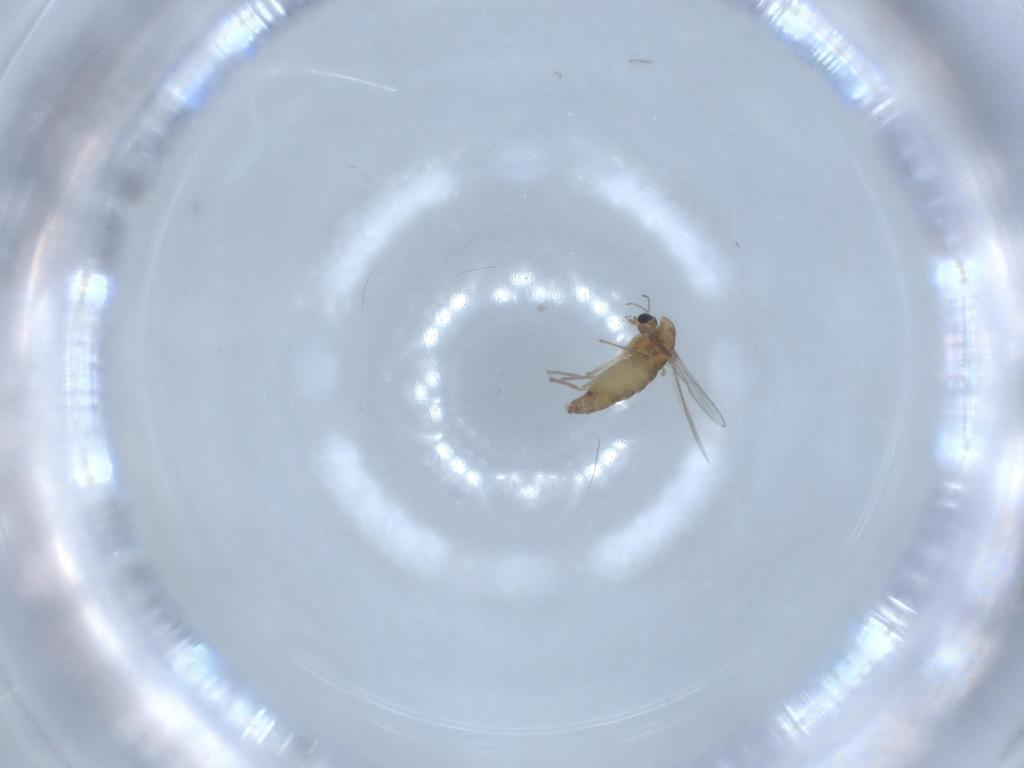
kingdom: Animalia
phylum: Arthropoda
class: Insecta
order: Diptera
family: Chironomidae
